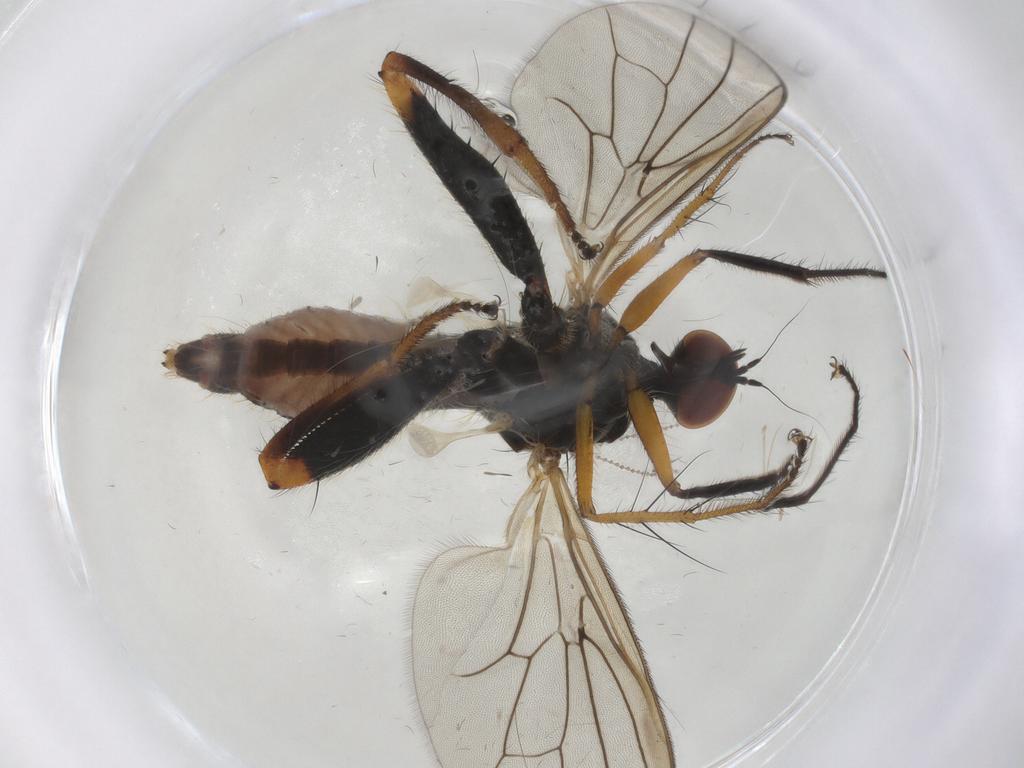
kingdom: Animalia
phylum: Arthropoda
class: Insecta
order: Diptera
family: Hybotidae
